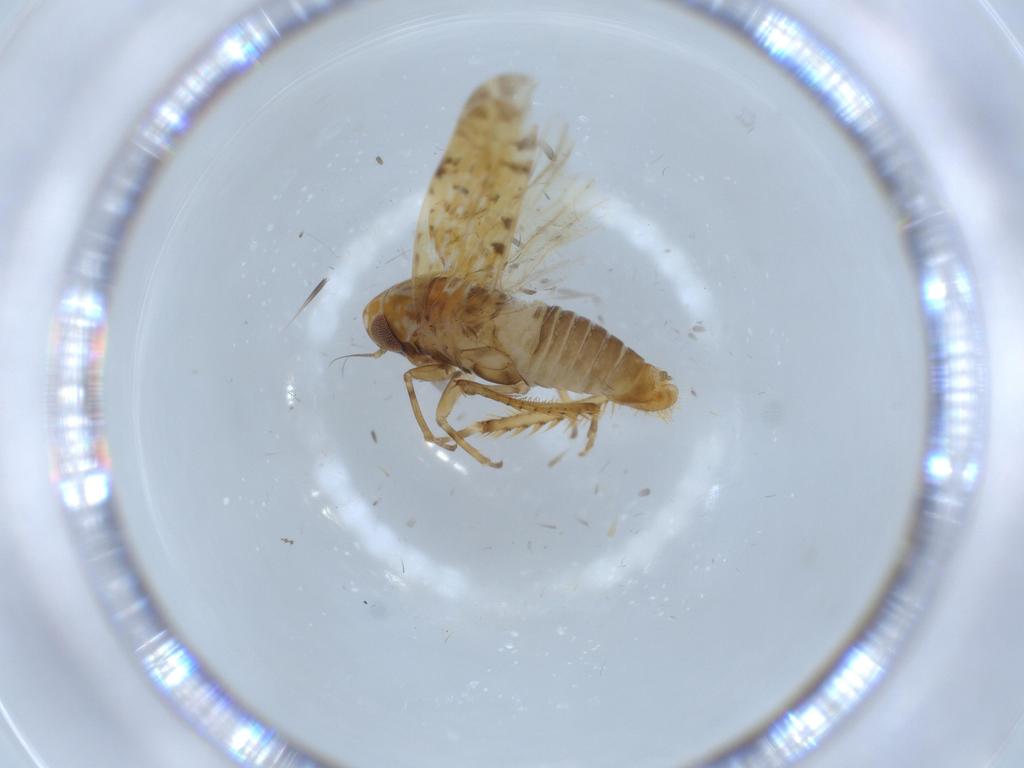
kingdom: Animalia
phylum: Arthropoda
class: Insecta
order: Hemiptera
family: Cicadellidae
